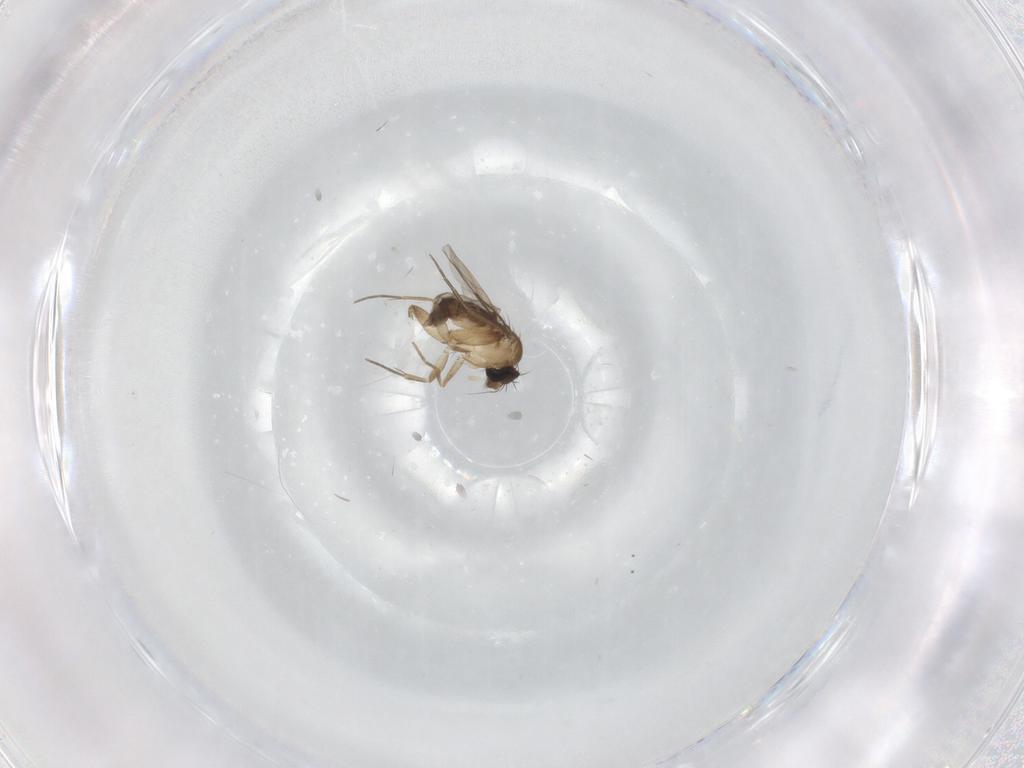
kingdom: Animalia
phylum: Arthropoda
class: Insecta
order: Diptera
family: Phoridae
